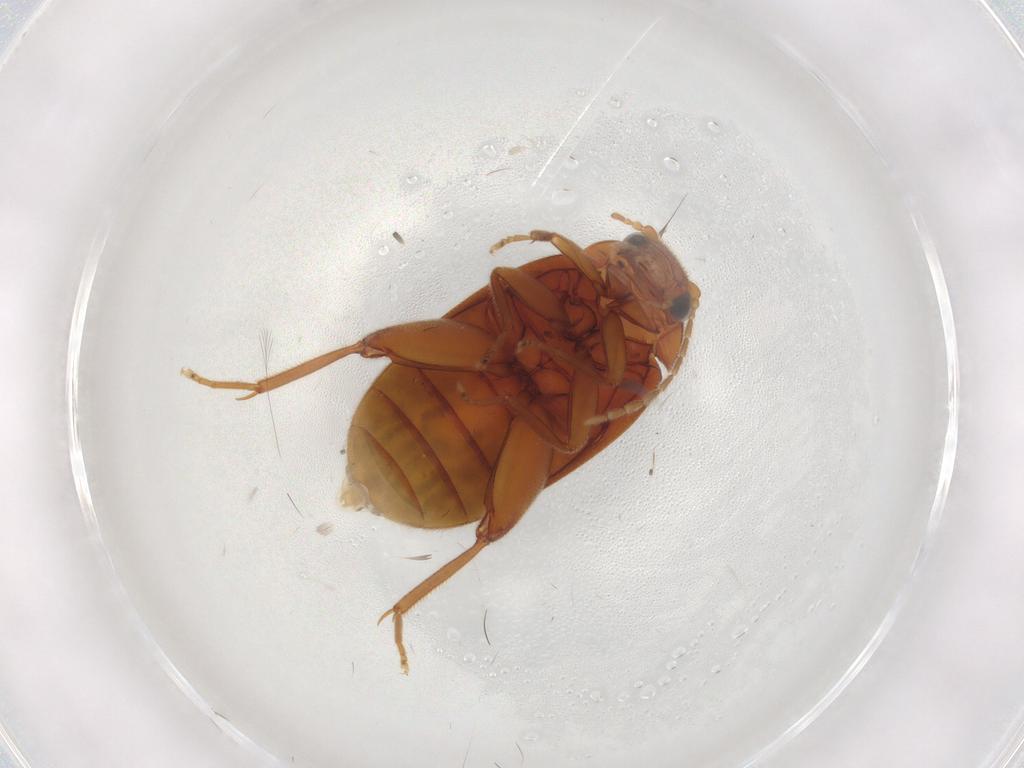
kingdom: Animalia
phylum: Arthropoda
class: Insecta
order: Coleoptera
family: Scirtidae
